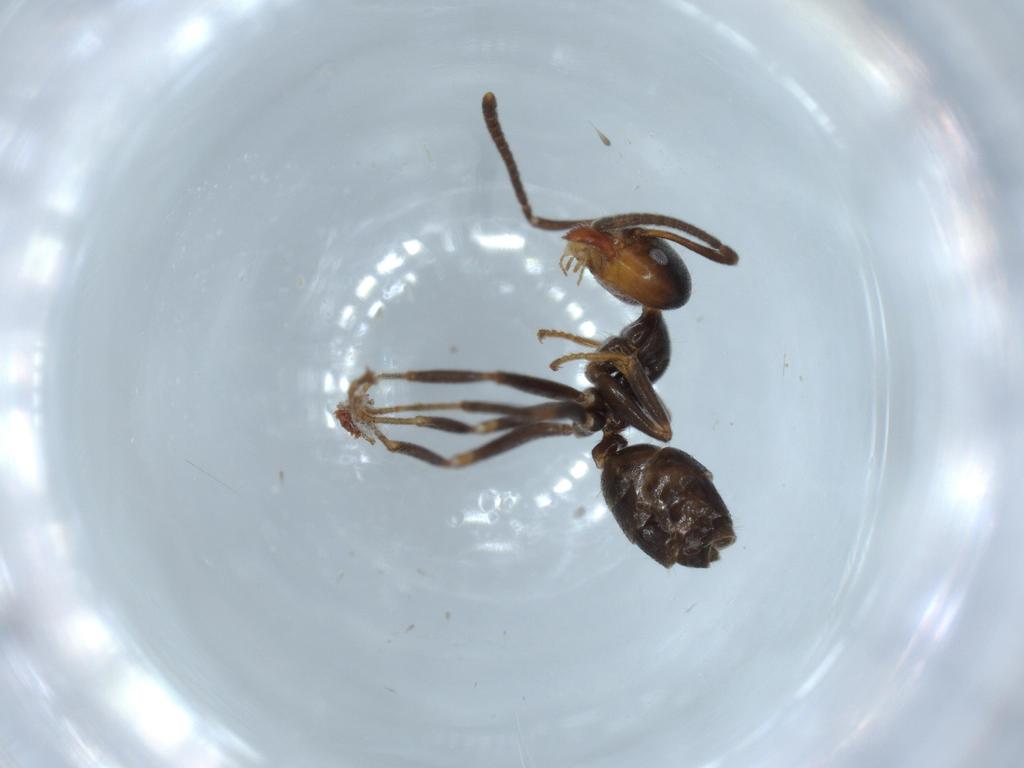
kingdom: Animalia
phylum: Arthropoda
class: Insecta
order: Hymenoptera
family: Formicidae
